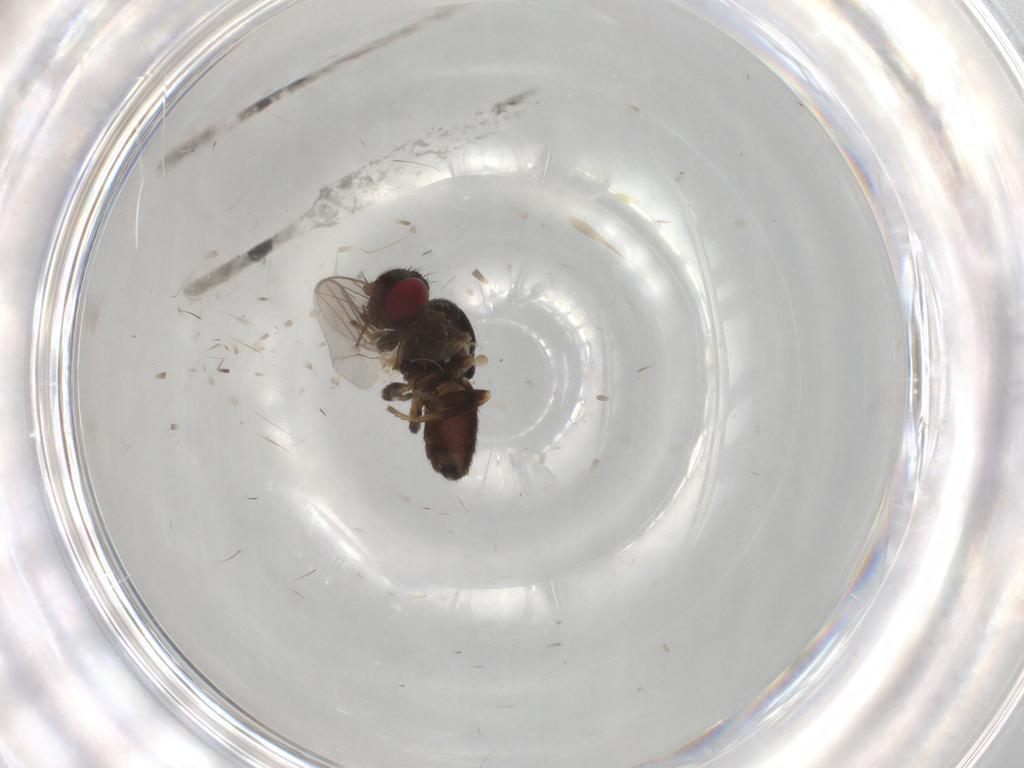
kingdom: Animalia
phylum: Arthropoda
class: Insecta
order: Diptera
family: Chloropidae
